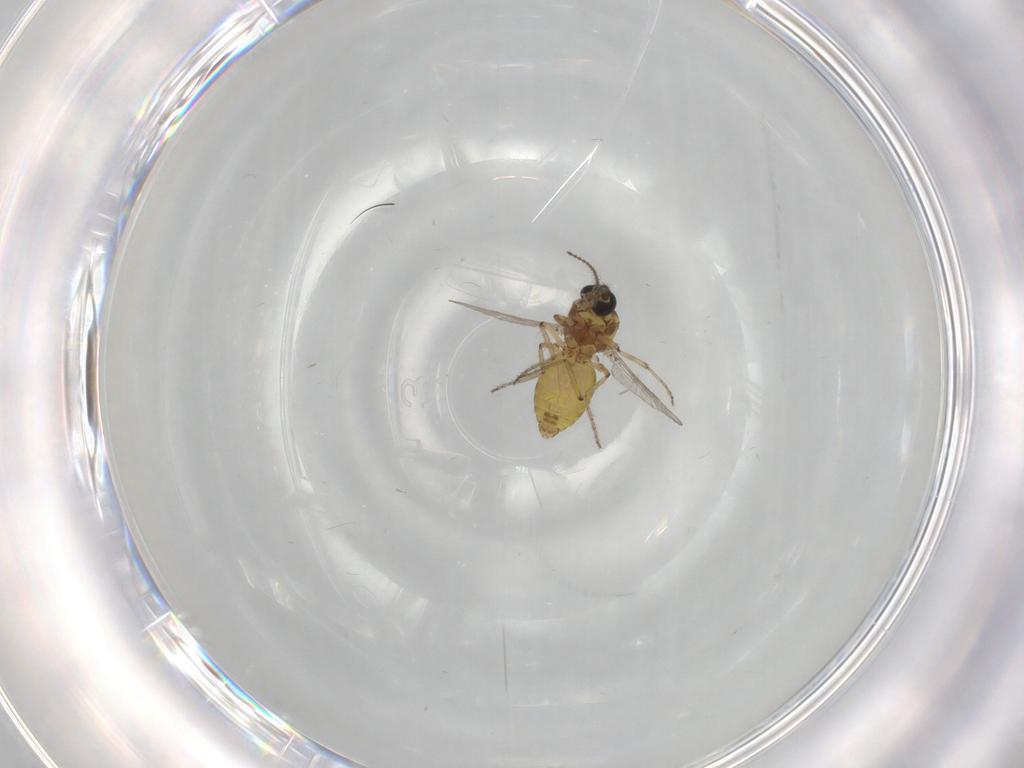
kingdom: Animalia
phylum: Arthropoda
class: Insecta
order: Diptera
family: Ceratopogonidae
